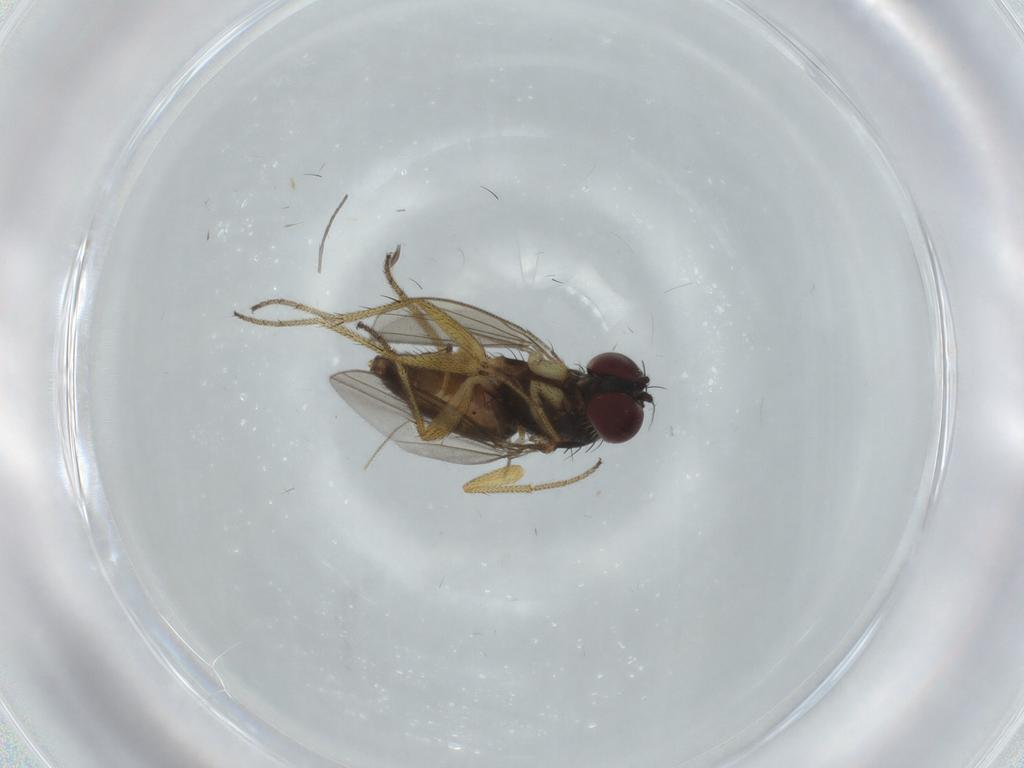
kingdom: Animalia
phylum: Arthropoda
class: Insecta
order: Diptera
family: Dolichopodidae
